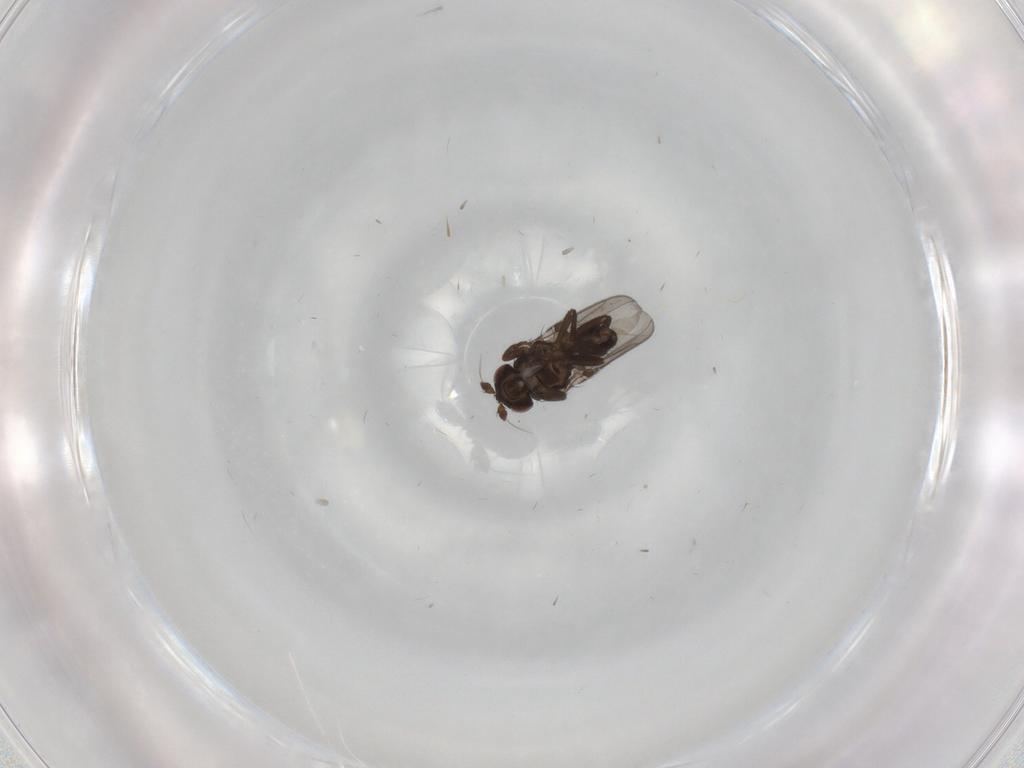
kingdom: Animalia
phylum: Arthropoda
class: Insecta
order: Diptera
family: Sphaeroceridae
